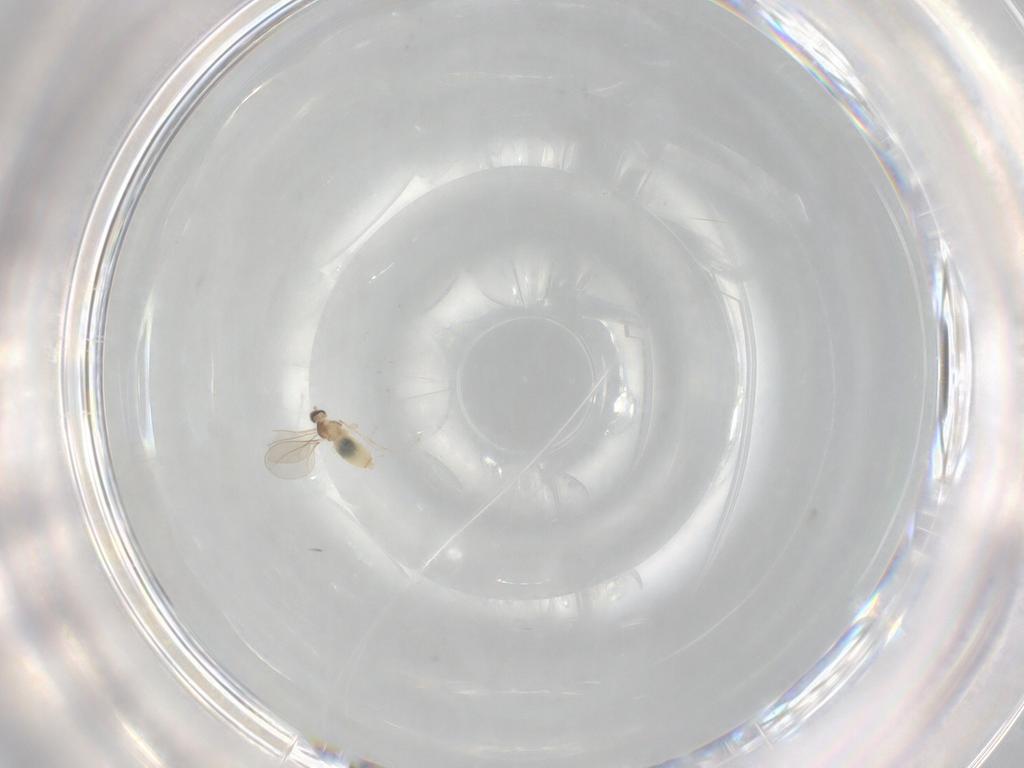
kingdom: Animalia
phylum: Arthropoda
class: Insecta
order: Diptera
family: Cecidomyiidae
